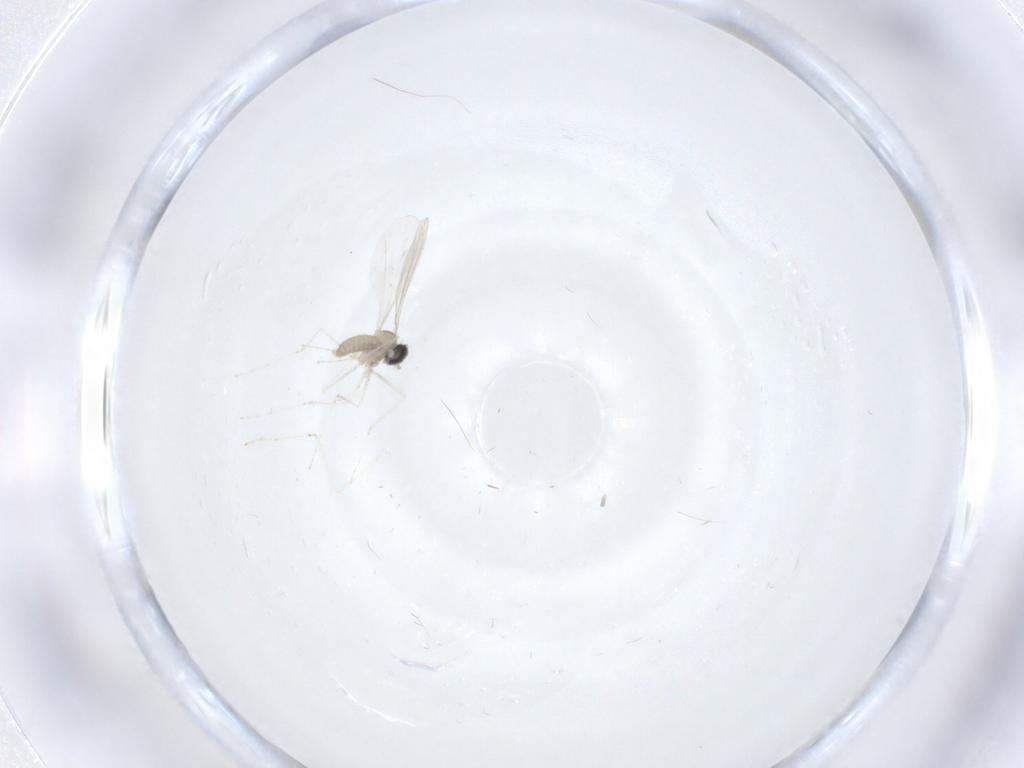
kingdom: Animalia
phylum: Arthropoda
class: Insecta
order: Diptera
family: Cecidomyiidae
